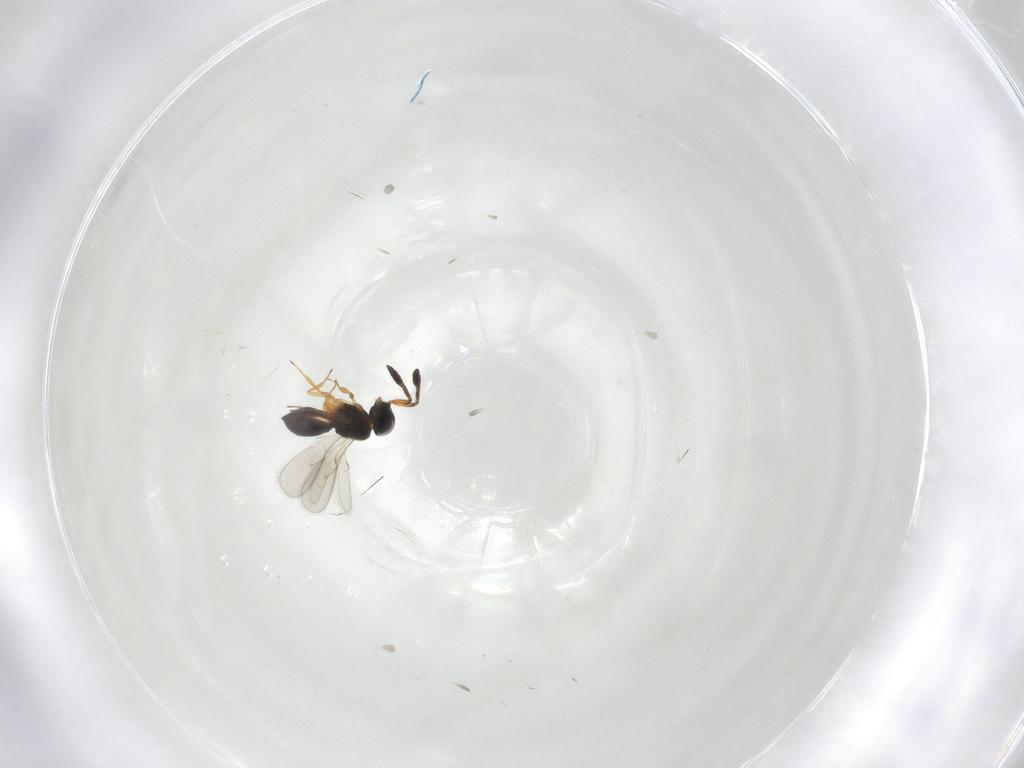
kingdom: Animalia
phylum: Arthropoda
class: Insecta
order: Hymenoptera
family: Scelionidae
